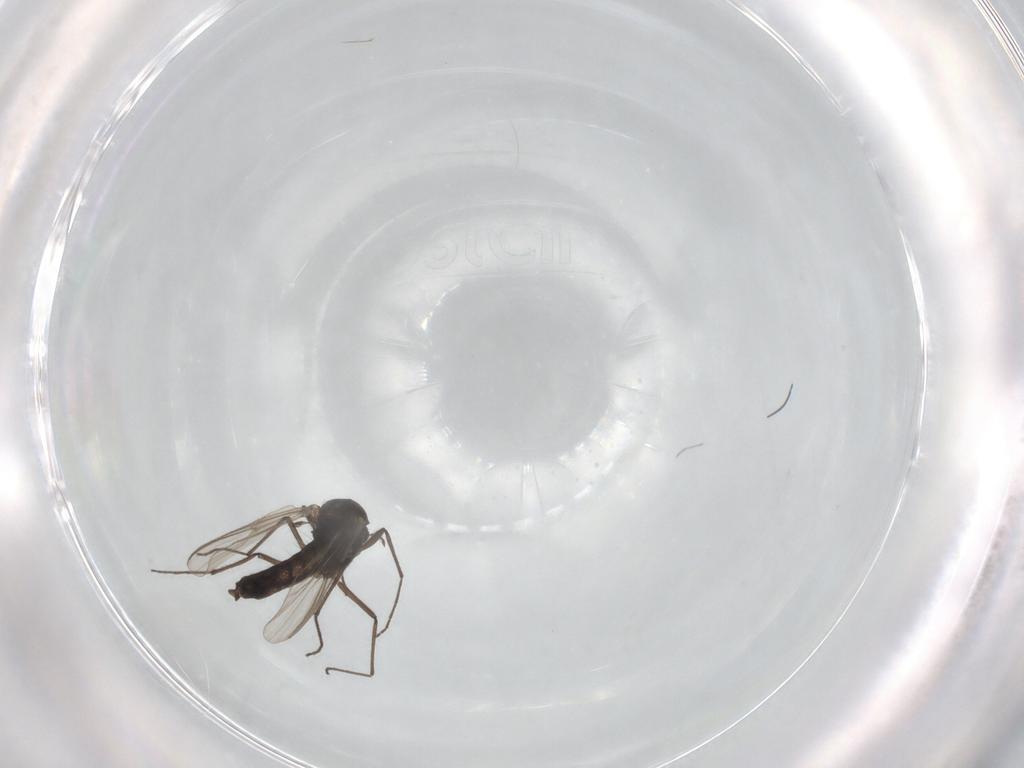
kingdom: Animalia
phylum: Arthropoda
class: Insecta
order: Diptera
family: Chironomidae
